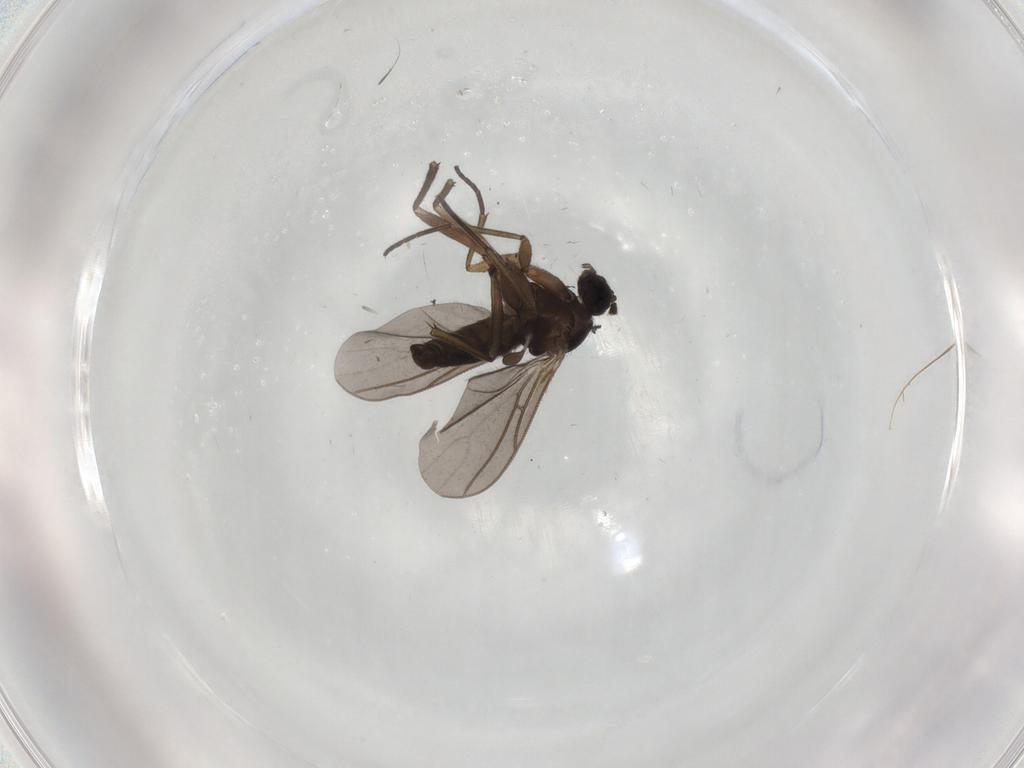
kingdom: Animalia
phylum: Arthropoda
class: Insecta
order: Diptera
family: Sciaridae
